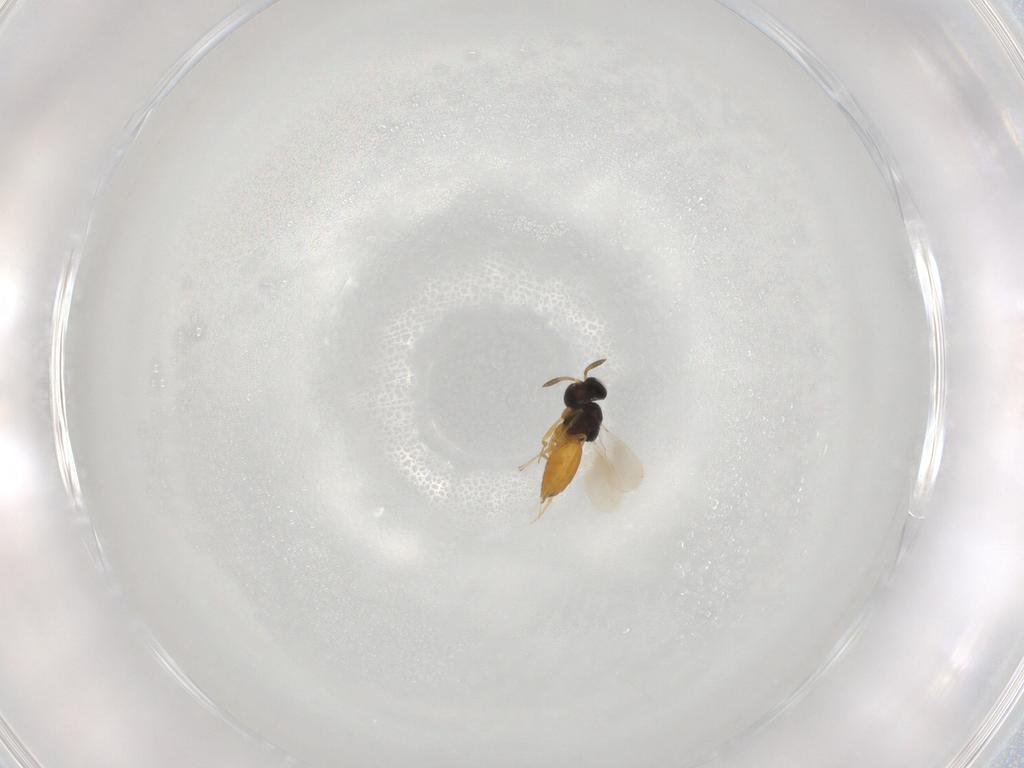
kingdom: Animalia
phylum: Arthropoda
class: Insecta
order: Hymenoptera
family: Scelionidae
